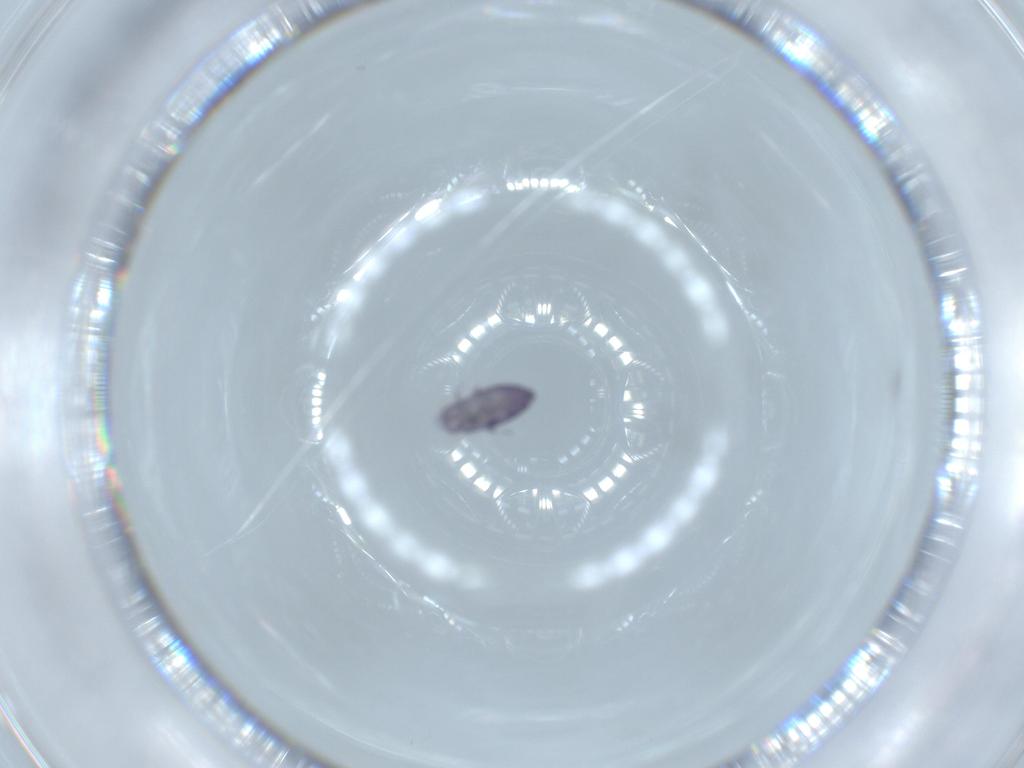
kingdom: Animalia
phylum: Arthropoda
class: Collembola
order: Entomobryomorpha
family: Entomobryidae
